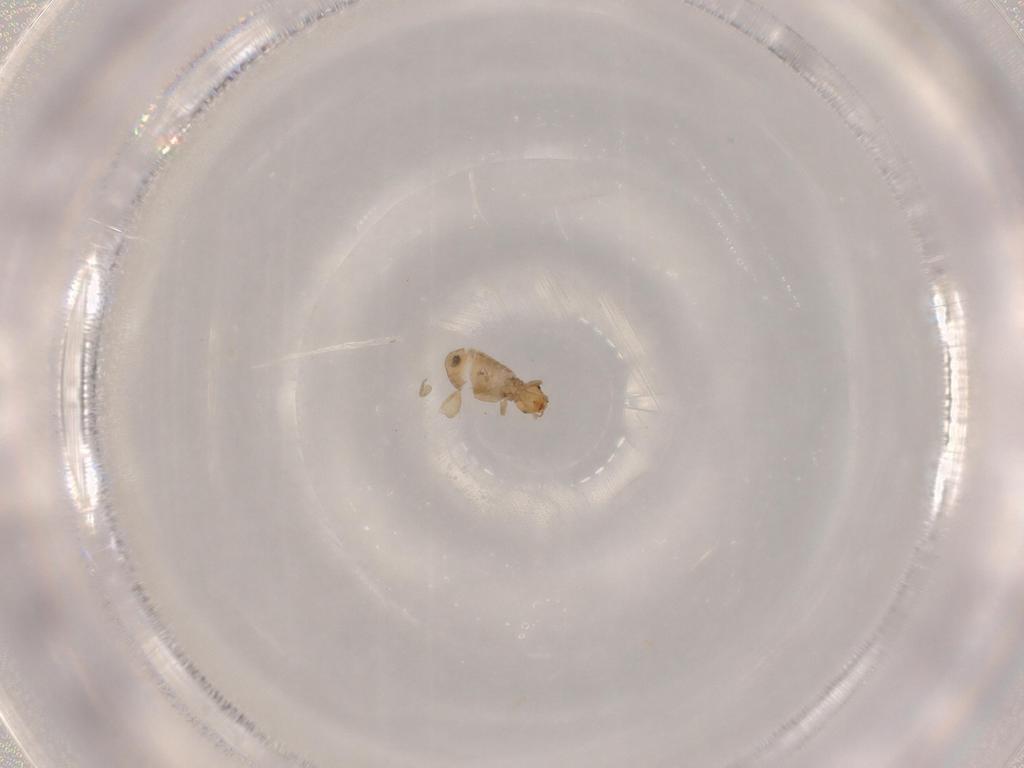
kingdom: Animalia
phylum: Arthropoda
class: Insecta
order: Psocodea
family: Liposcelididae
